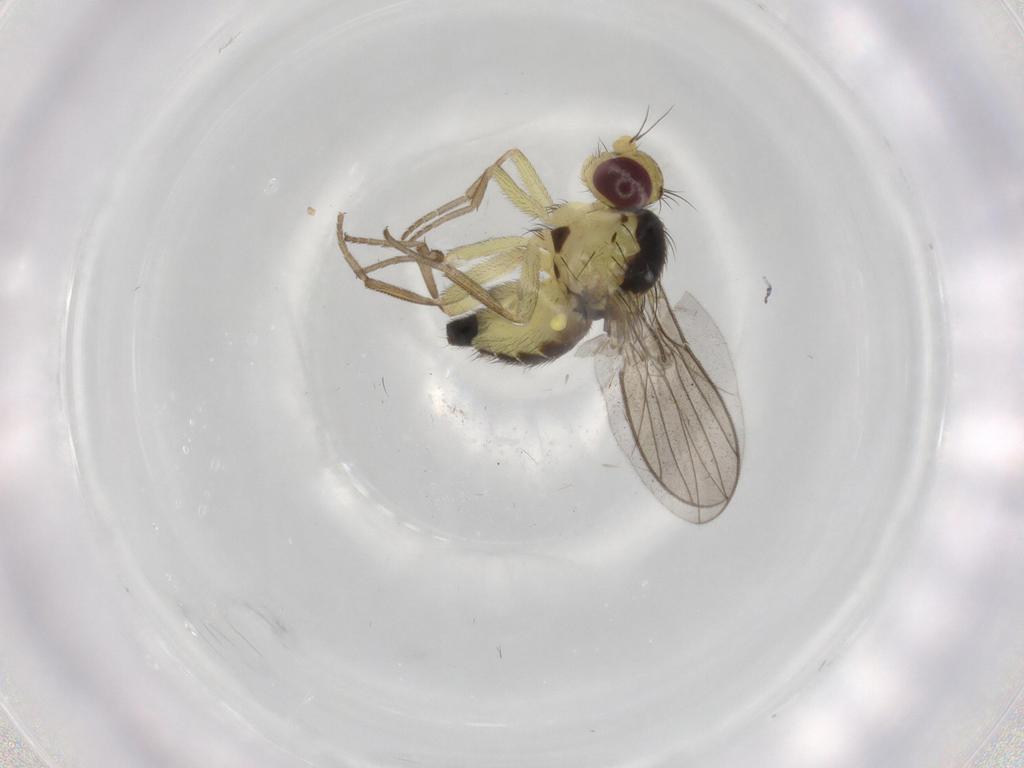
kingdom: Animalia
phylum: Arthropoda
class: Insecta
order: Diptera
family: Agromyzidae
